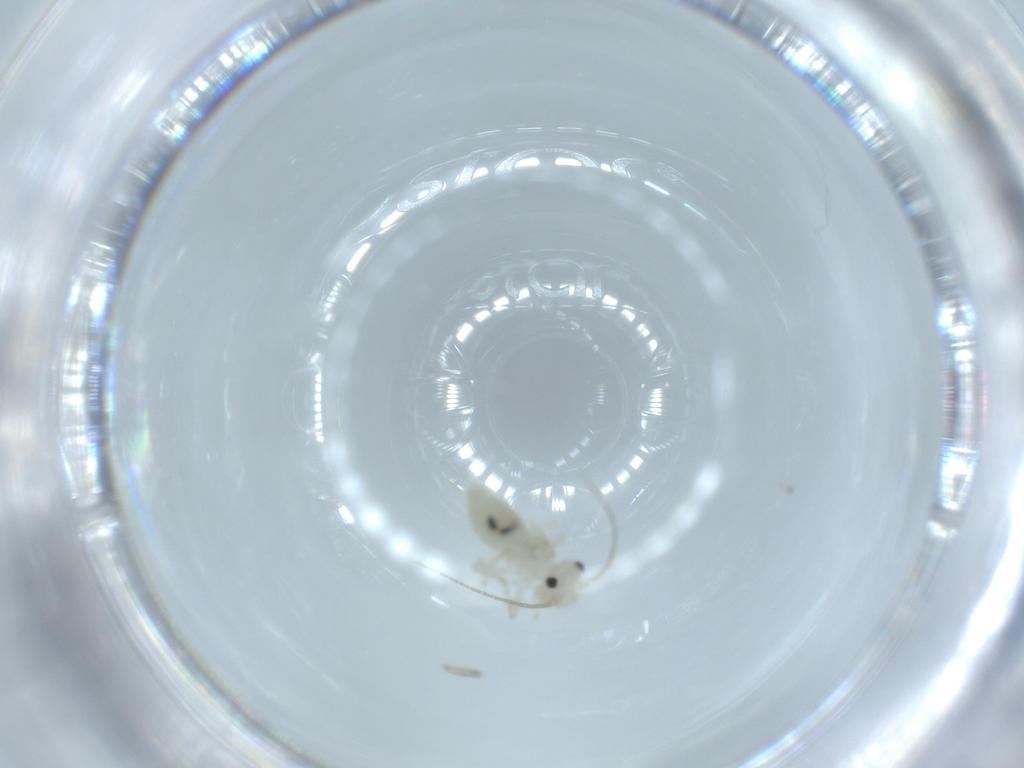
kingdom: Animalia
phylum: Arthropoda
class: Insecta
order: Psocodea
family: Caeciliusidae
